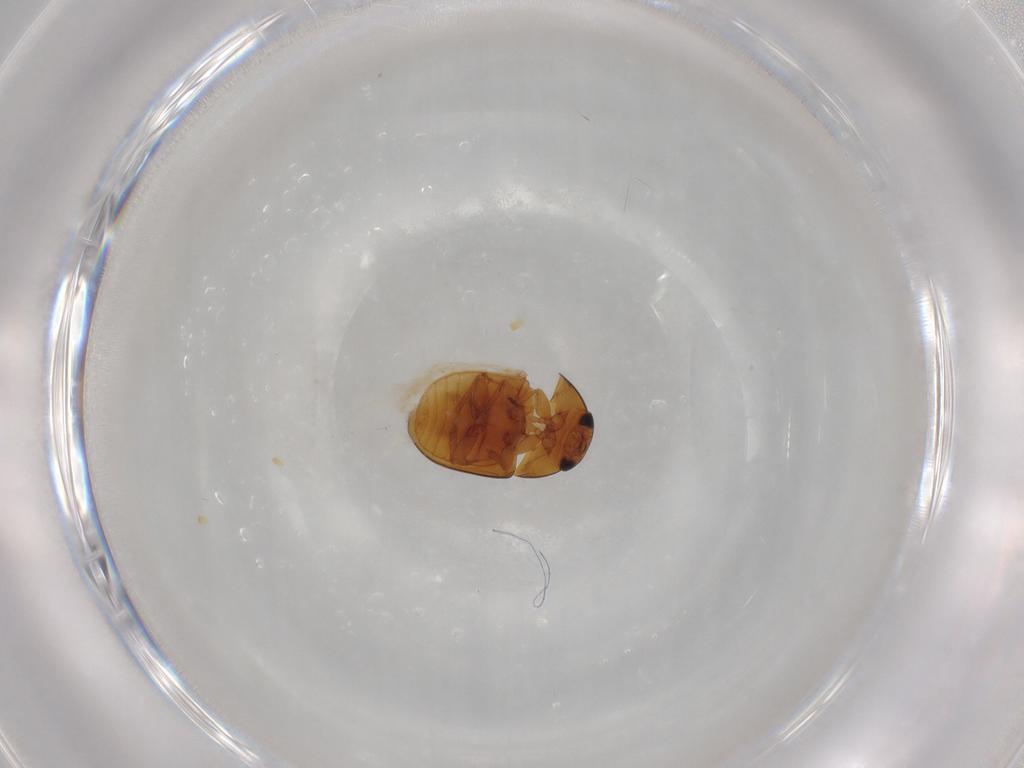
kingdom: Animalia
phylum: Arthropoda
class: Insecta
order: Coleoptera
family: Phalacridae
